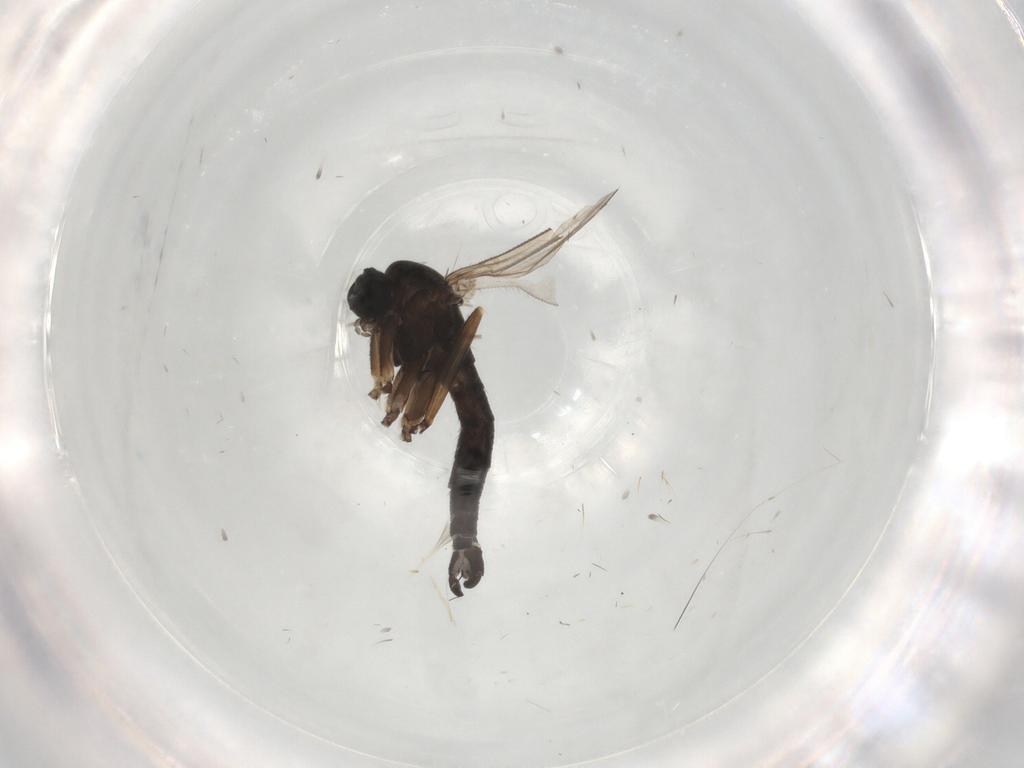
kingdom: Animalia
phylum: Arthropoda
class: Insecta
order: Diptera
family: Sciaridae
